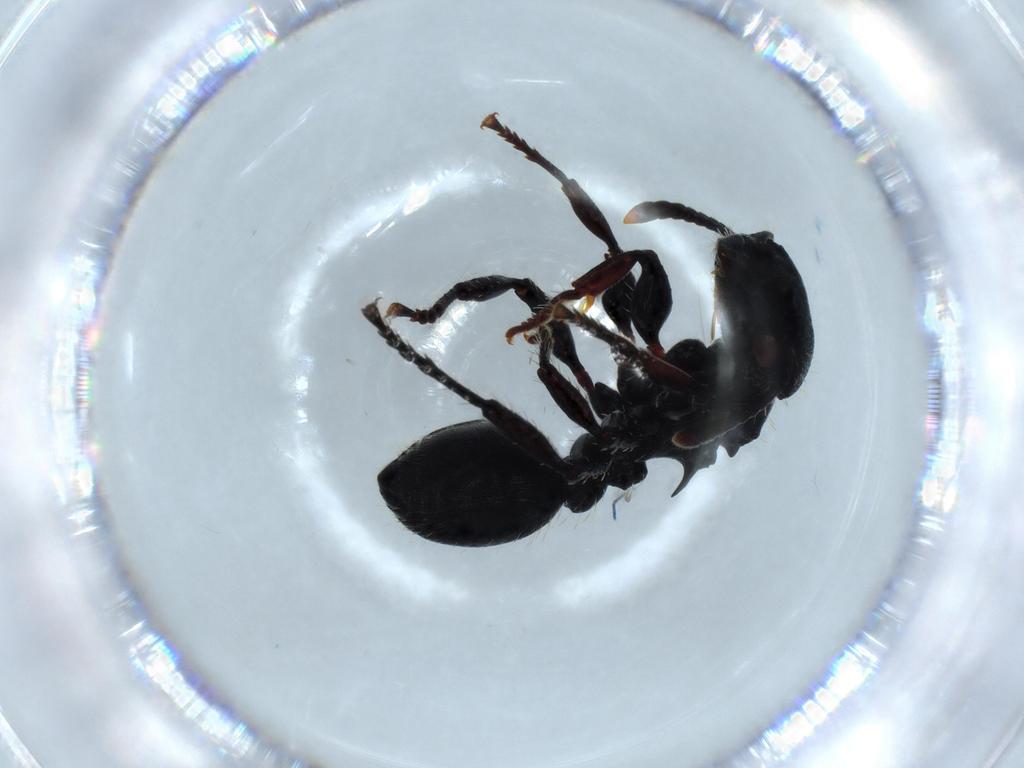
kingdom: Animalia
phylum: Arthropoda
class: Insecta
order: Hymenoptera
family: Formicidae
